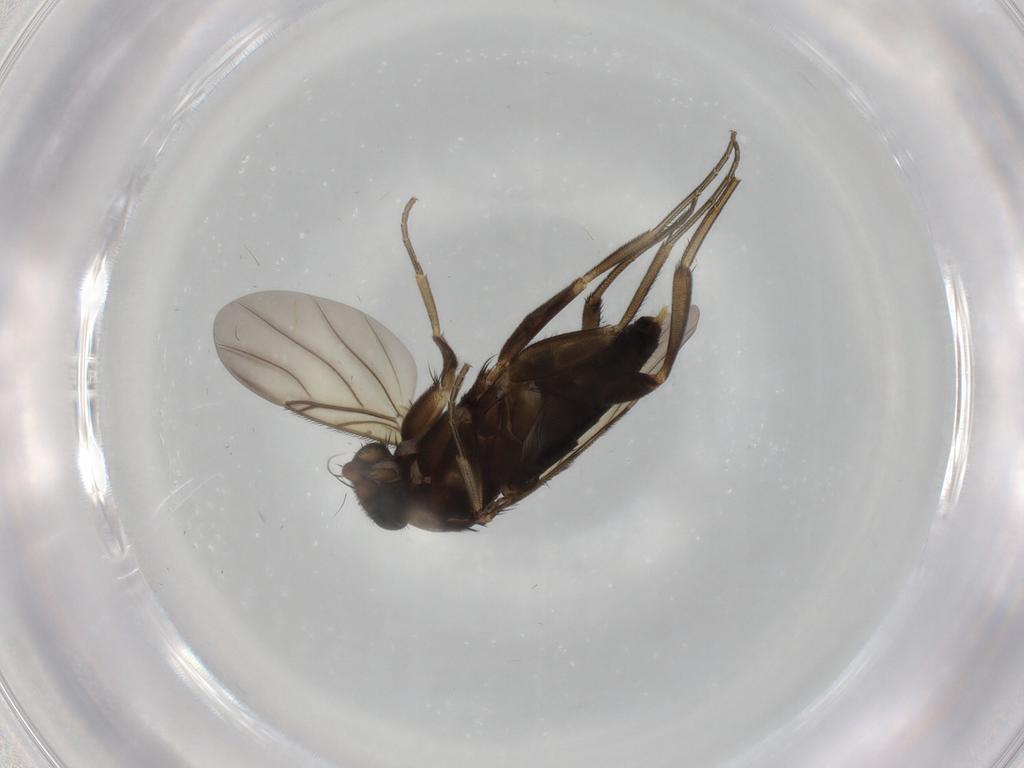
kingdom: Animalia
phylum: Arthropoda
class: Insecta
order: Diptera
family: Phoridae
